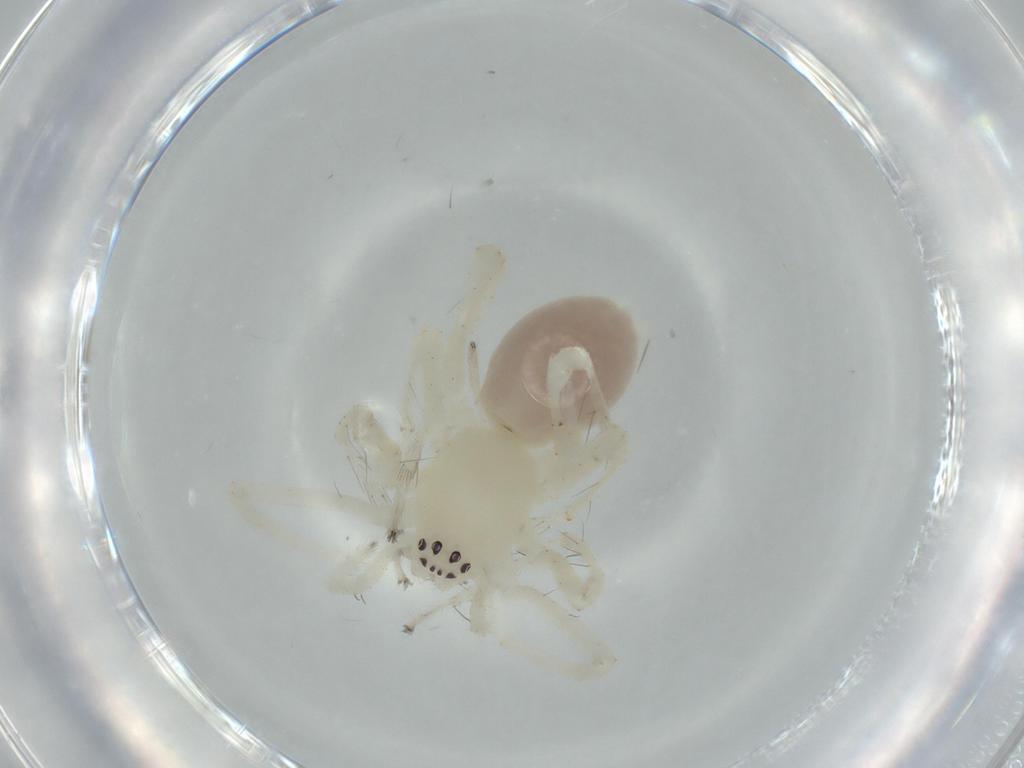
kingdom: Animalia
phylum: Arthropoda
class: Arachnida
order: Araneae
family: Anyphaenidae
